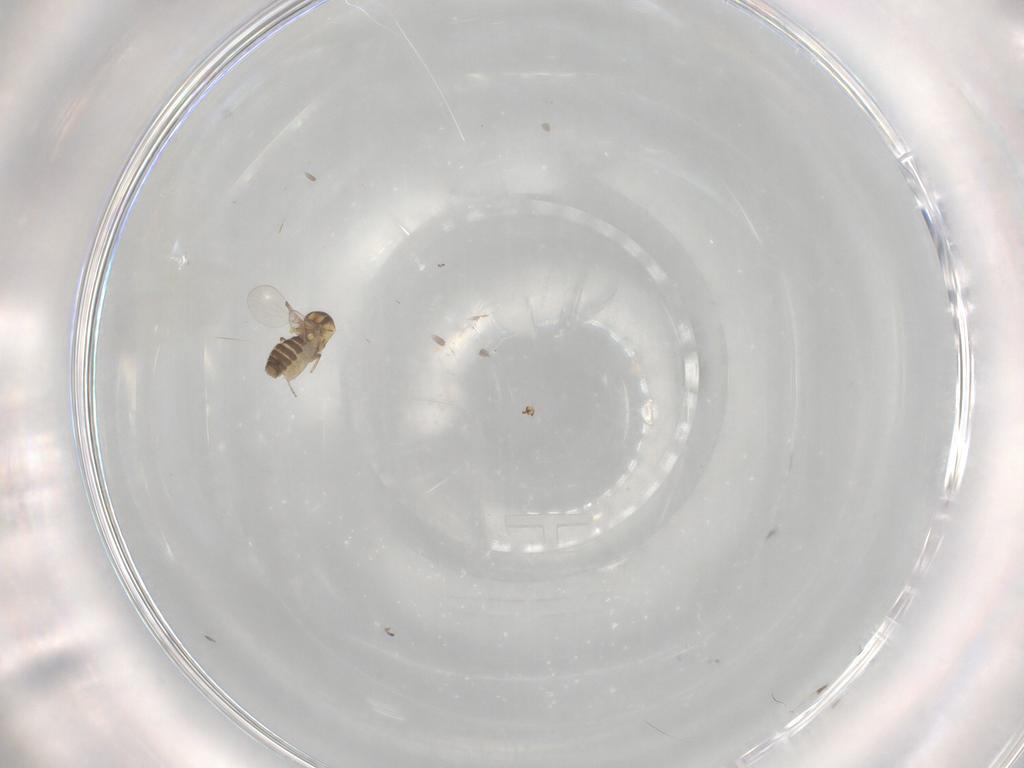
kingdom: Animalia
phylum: Arthropoda
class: Insecta
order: Diptera
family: Ceratopogonidae
